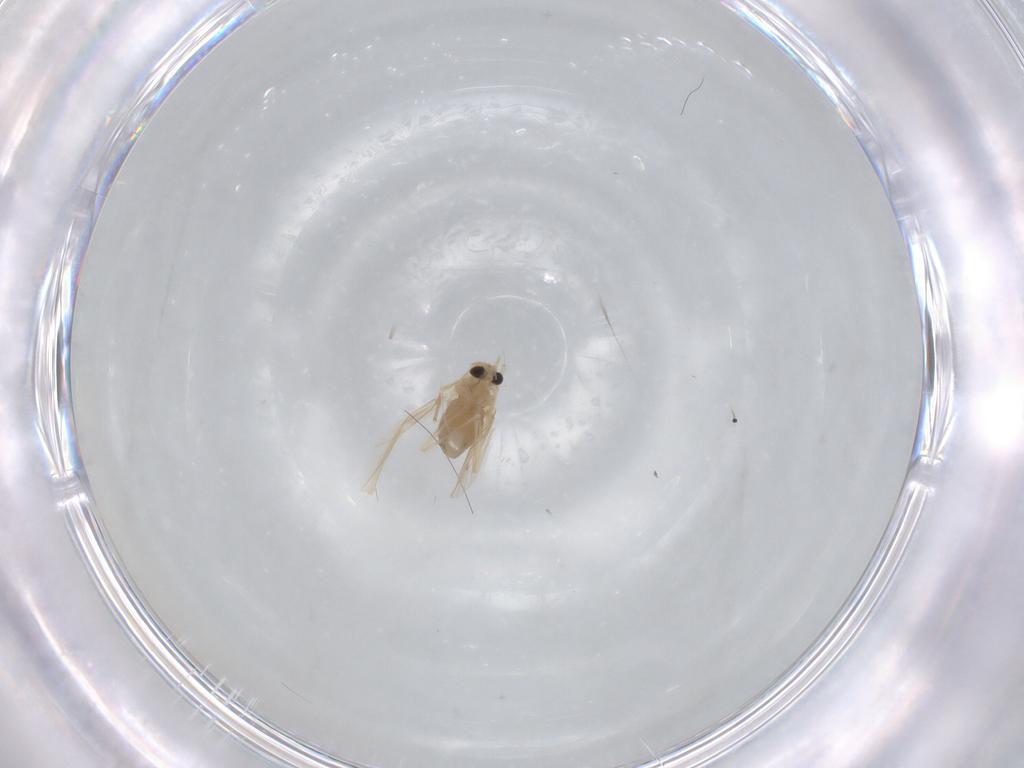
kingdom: Animalia
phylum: Arthropoda
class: Insecta
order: Diptera
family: Chironomidae
